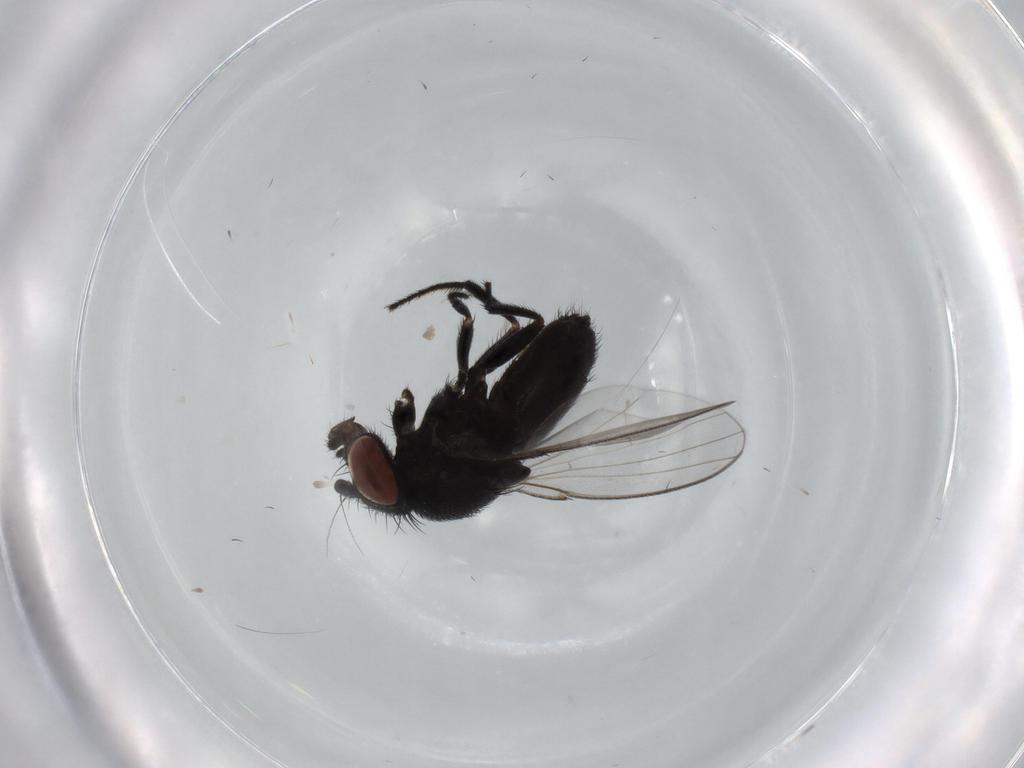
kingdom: Animalia
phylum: Arthropoda
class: Insecta
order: Diptera
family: Milichiidae
